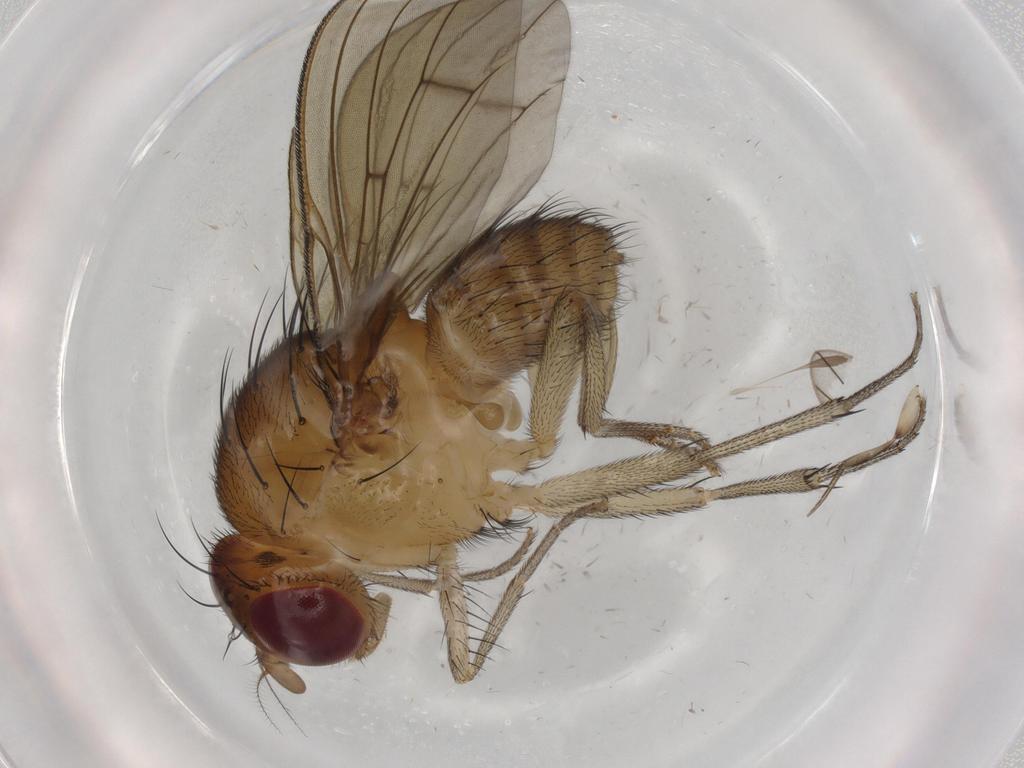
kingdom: Animalia
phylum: Arthropoda
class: Insecta
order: Diptera
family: Lauxaniidae
